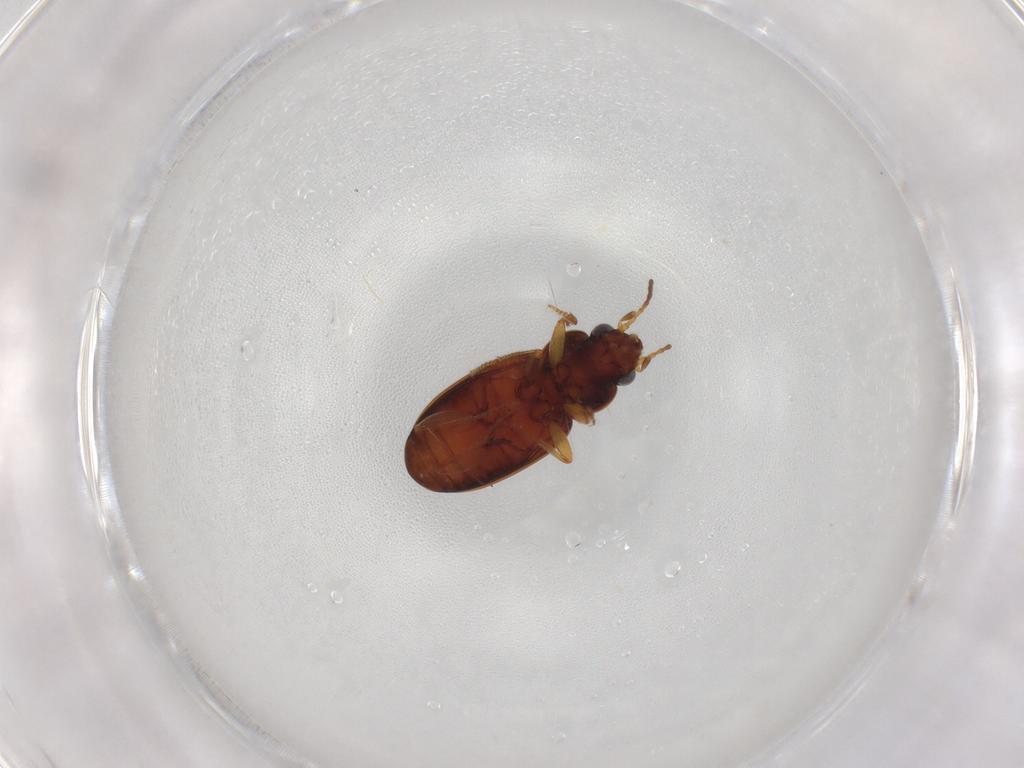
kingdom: Animalia
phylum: Arthropoda
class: Insecta
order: Coleoptera
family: Carabidae
